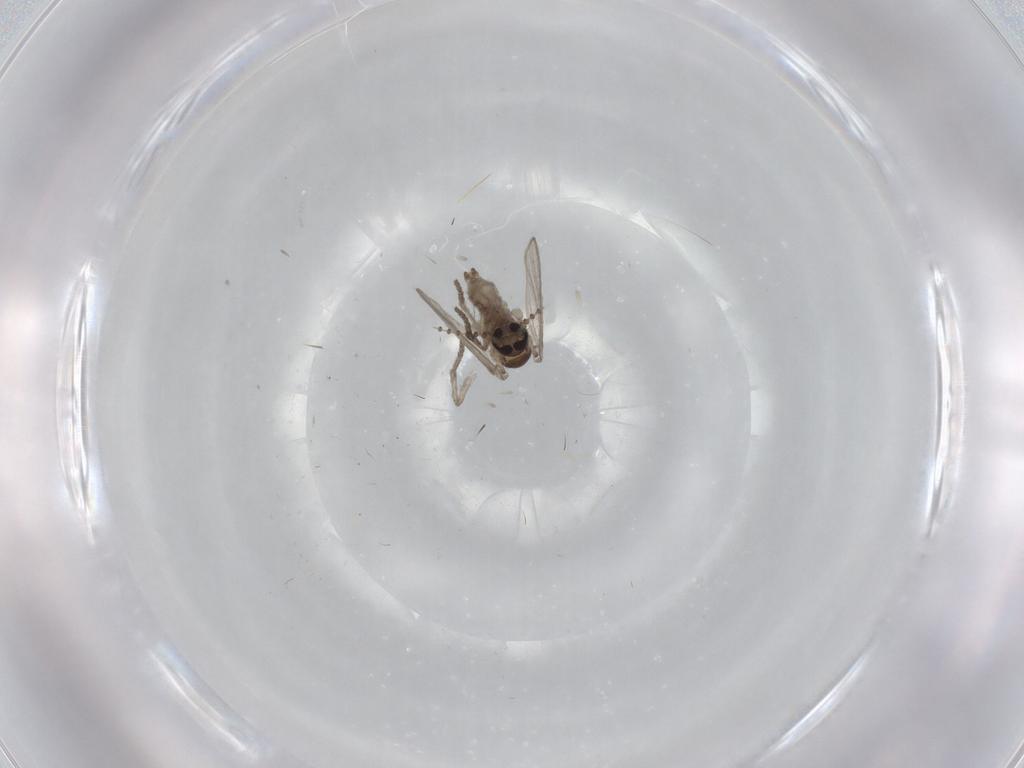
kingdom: Animalia
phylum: Arthropoda
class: Insecta
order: Diptera
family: Psychodidae
